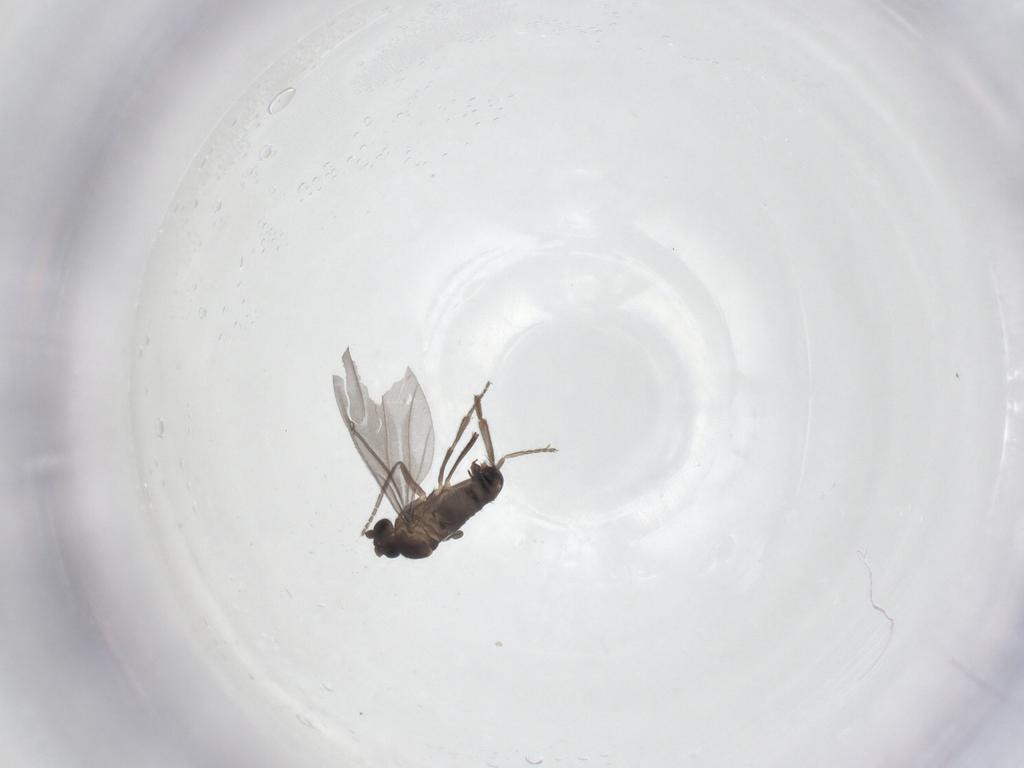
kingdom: Animalia
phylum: Arthropoda
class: Insecta
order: Diptera
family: Phoridae
